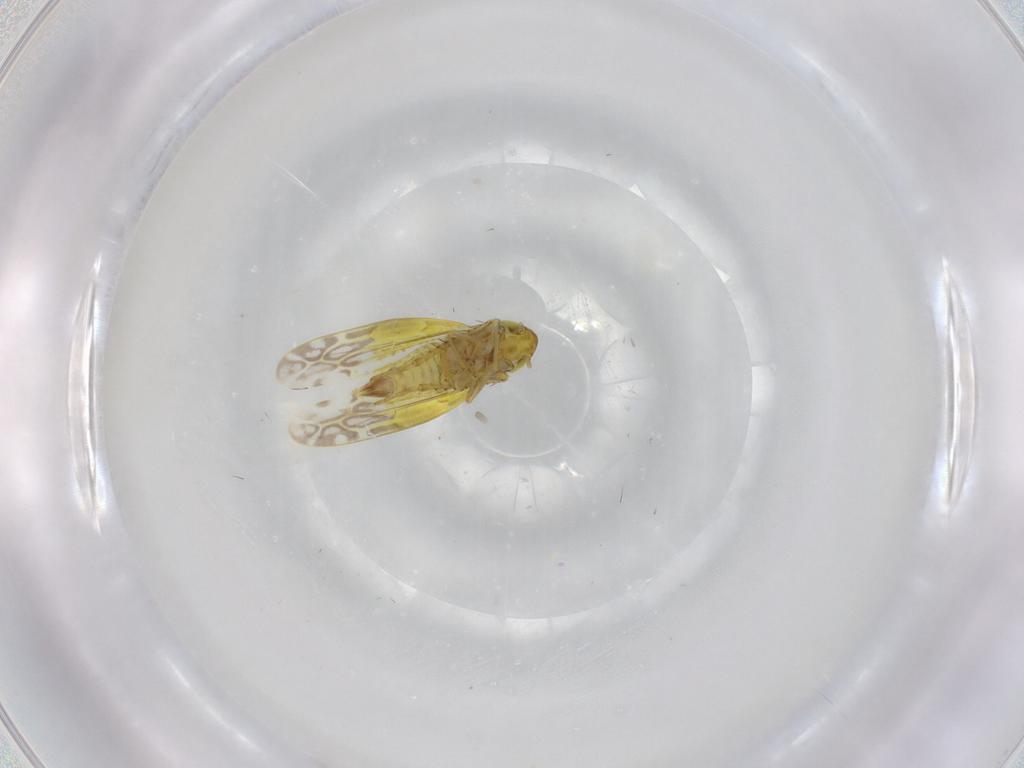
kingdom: Animalia
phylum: Arthropoda
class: Insecta
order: Hemiptera
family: Cicadellidae
